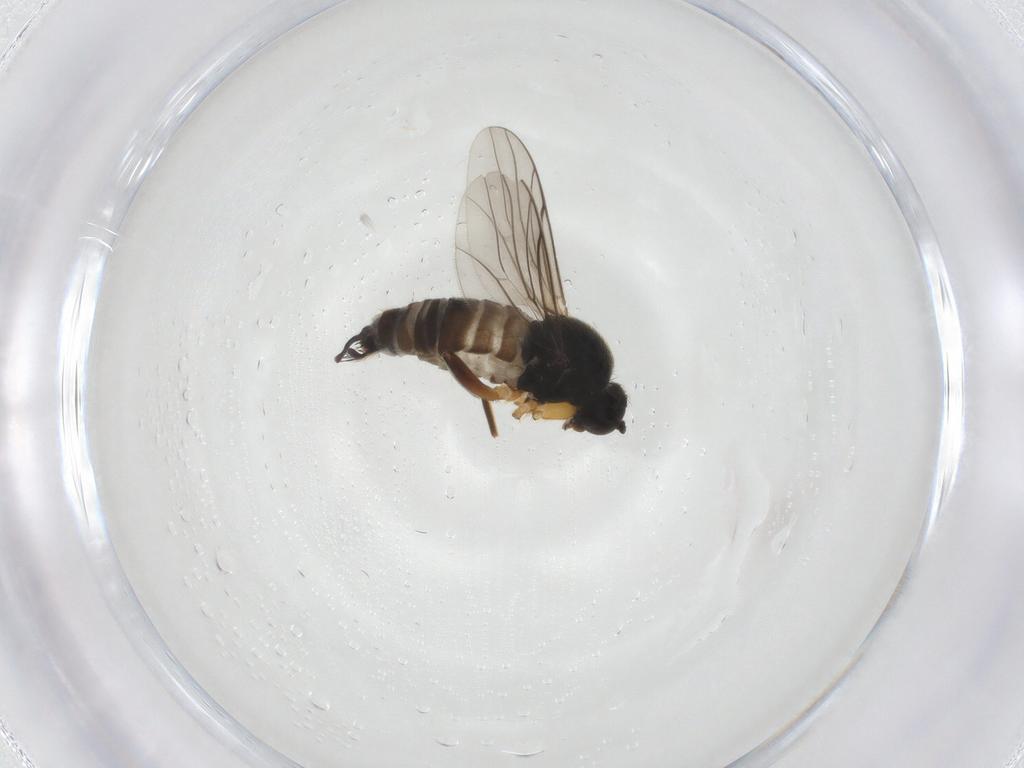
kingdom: Animalia
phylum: Arthropoda
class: Insecta
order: Diptera
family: Hybotidae
